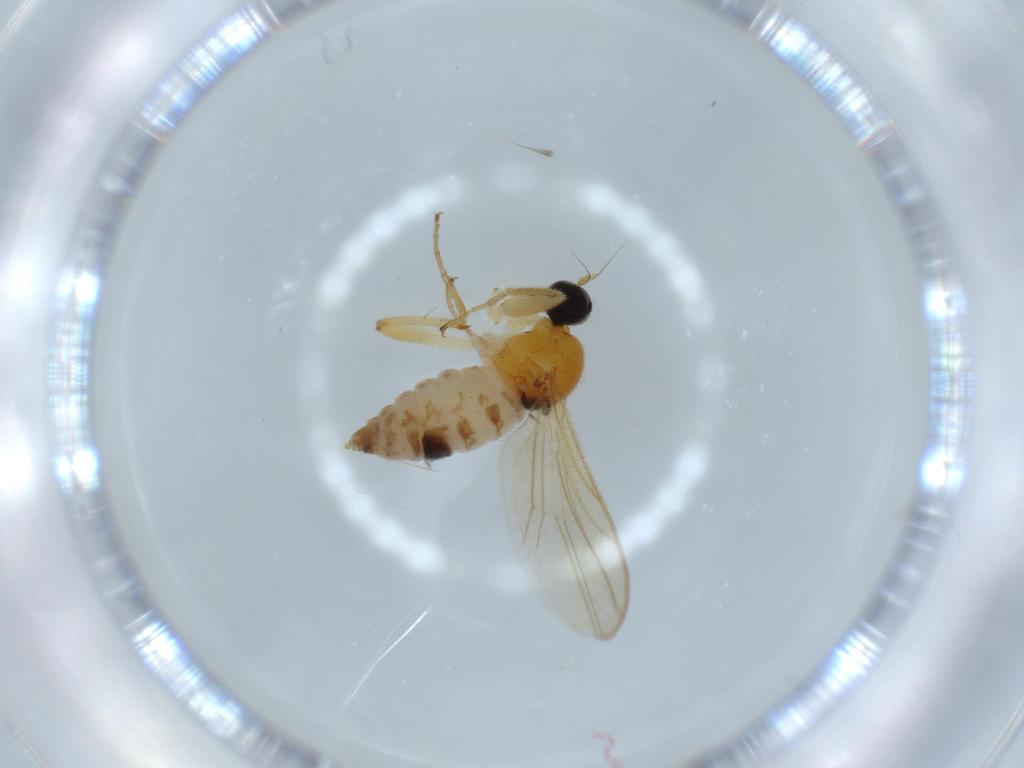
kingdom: Animalia
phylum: Arthropoda
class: Insecta
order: Diptera
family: Hybotidae
